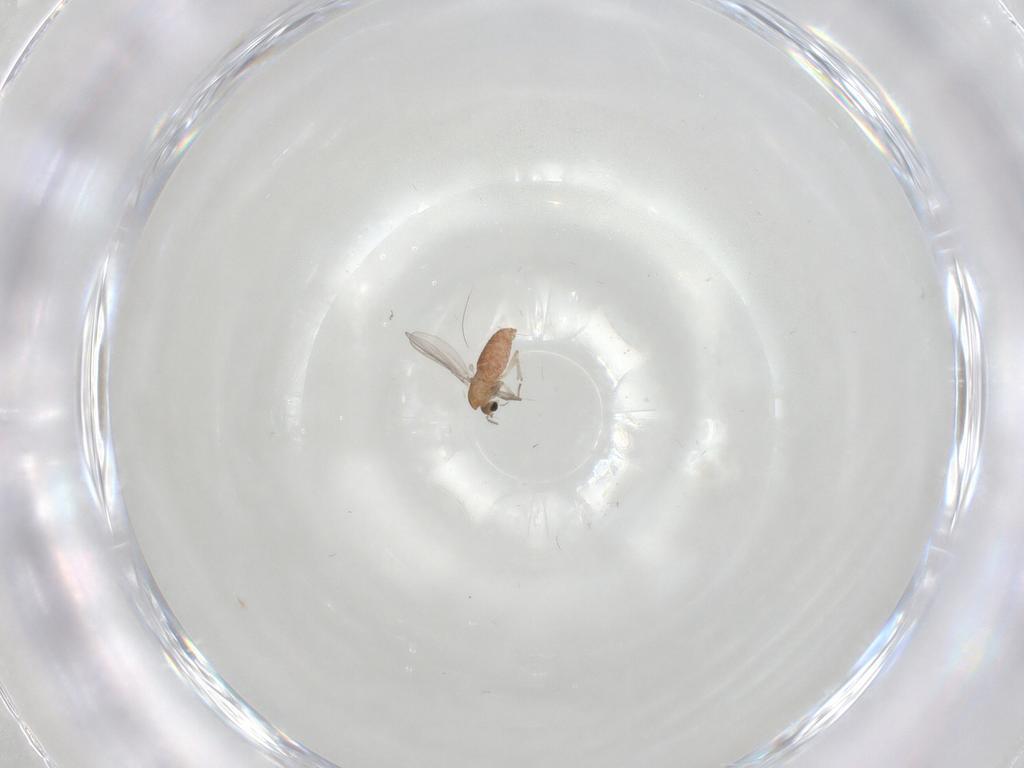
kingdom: Animalia
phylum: Arthropoda
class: Insecta
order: Diptera
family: Chironomidae
